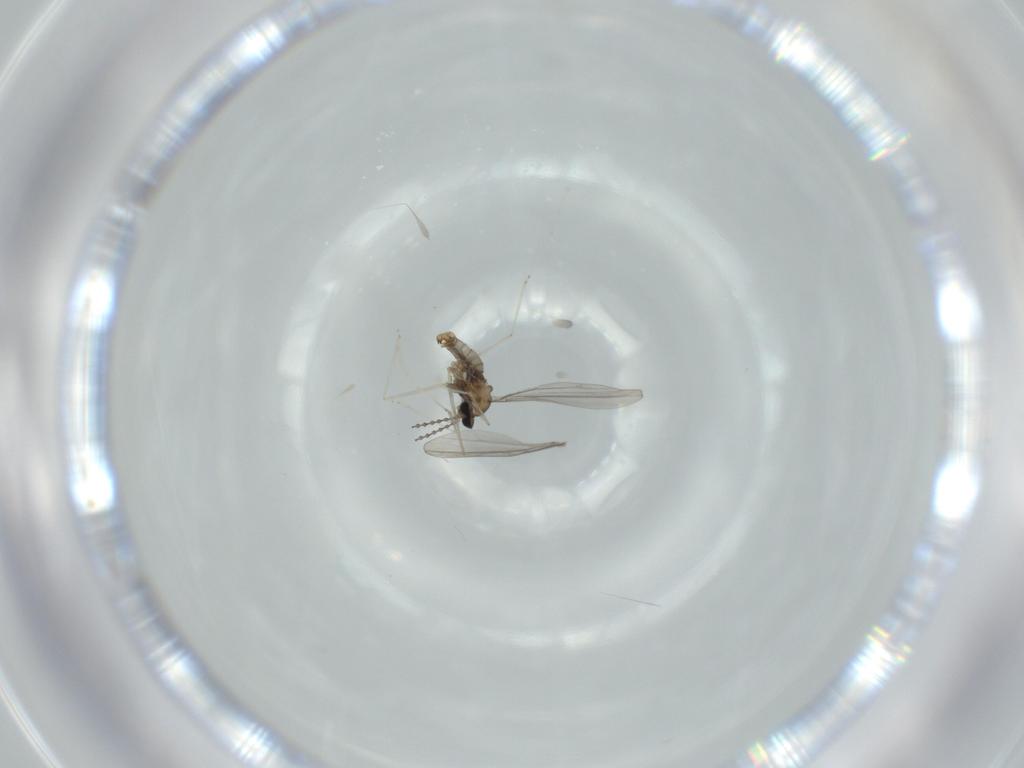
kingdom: Animalia
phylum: Arthropoda
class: Insecta
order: Diptera
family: Cecidomyiidae
